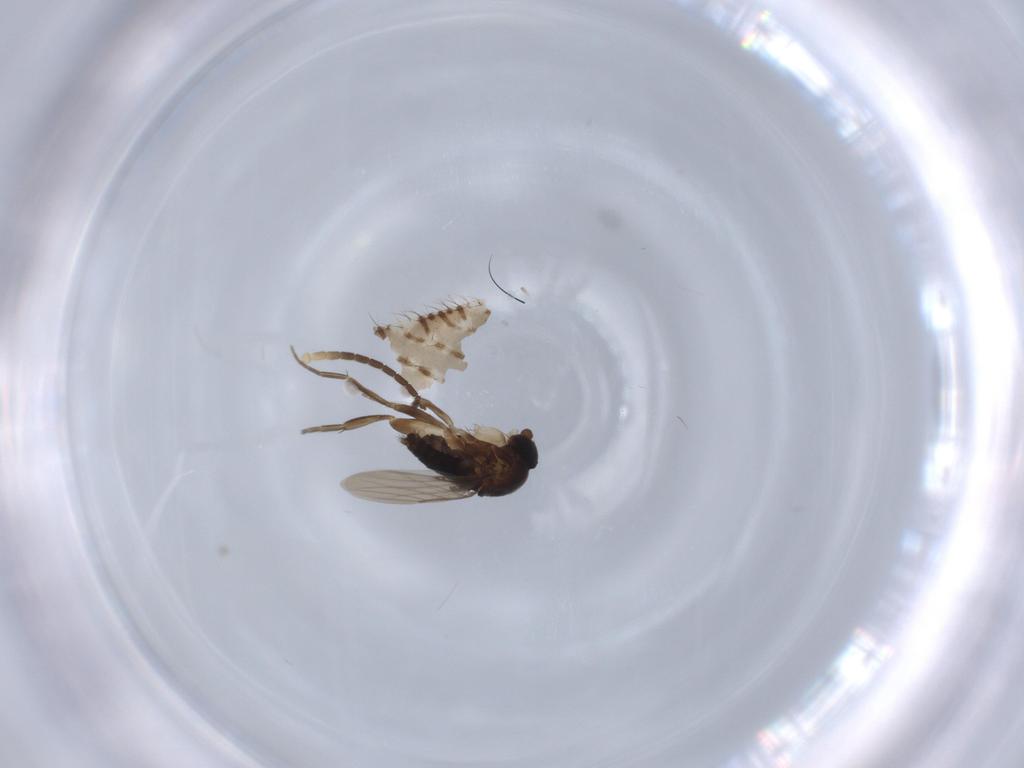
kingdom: Animalia
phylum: Arthropoda
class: Insecta
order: Diptera
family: Phoridae
